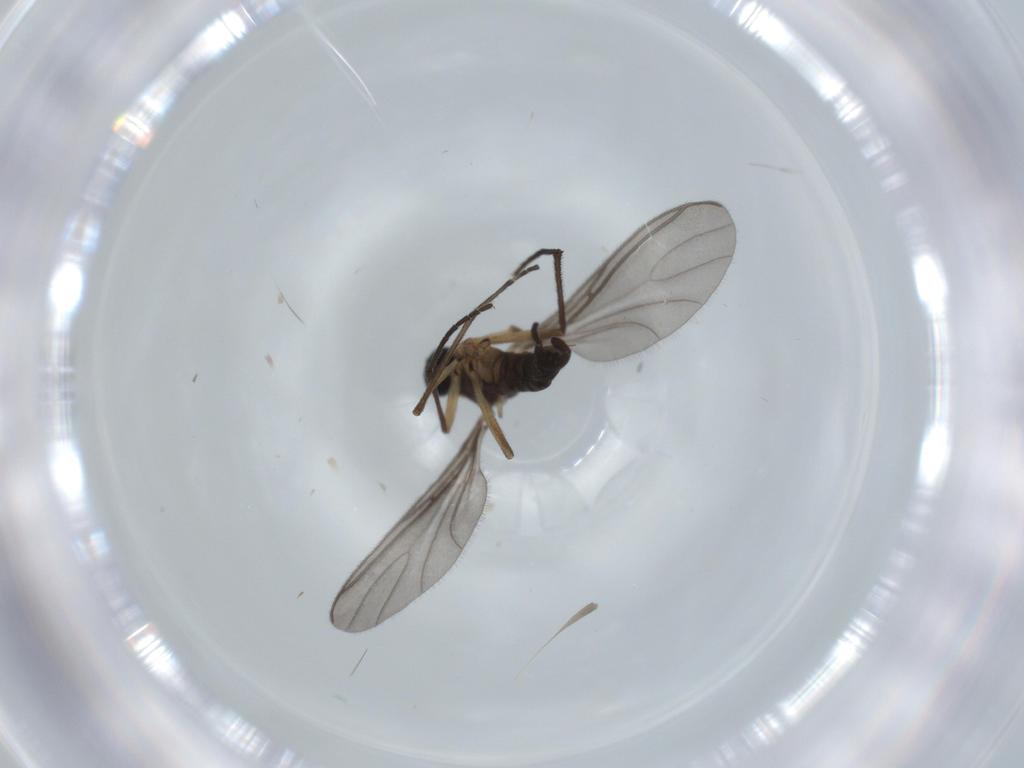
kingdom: Animalia
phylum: Arthropoda
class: Insecta
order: Diptera
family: Sciaridae
